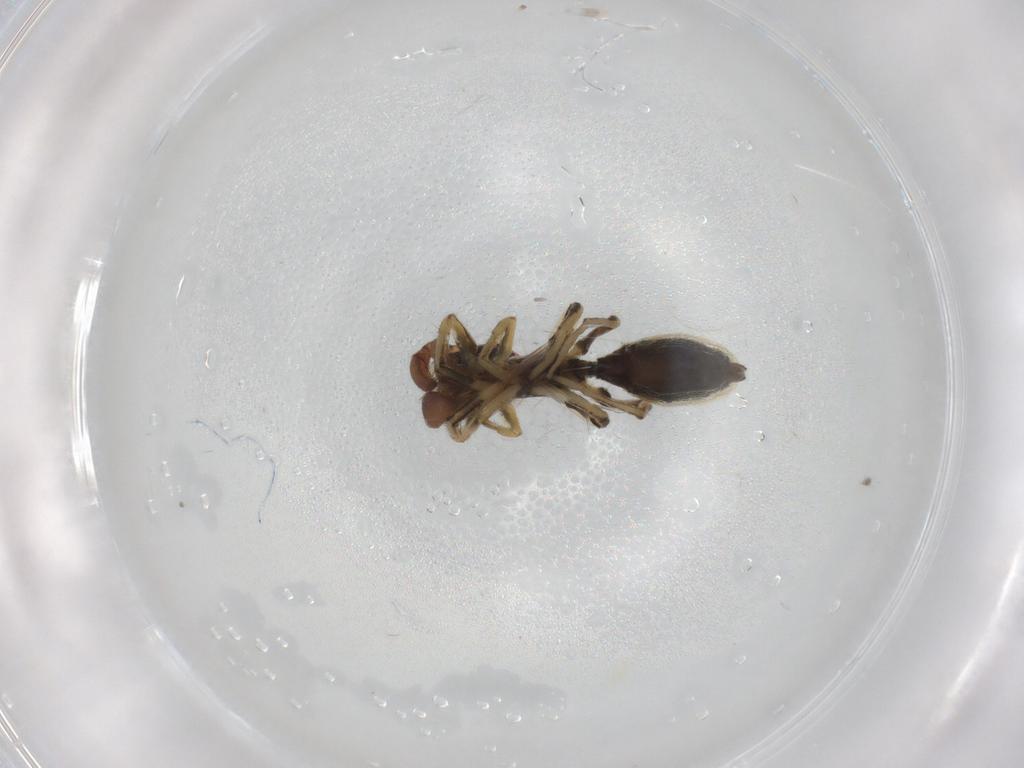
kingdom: Animalia
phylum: Arthropoda
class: Arachnida
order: Araneae
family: Salticidae
